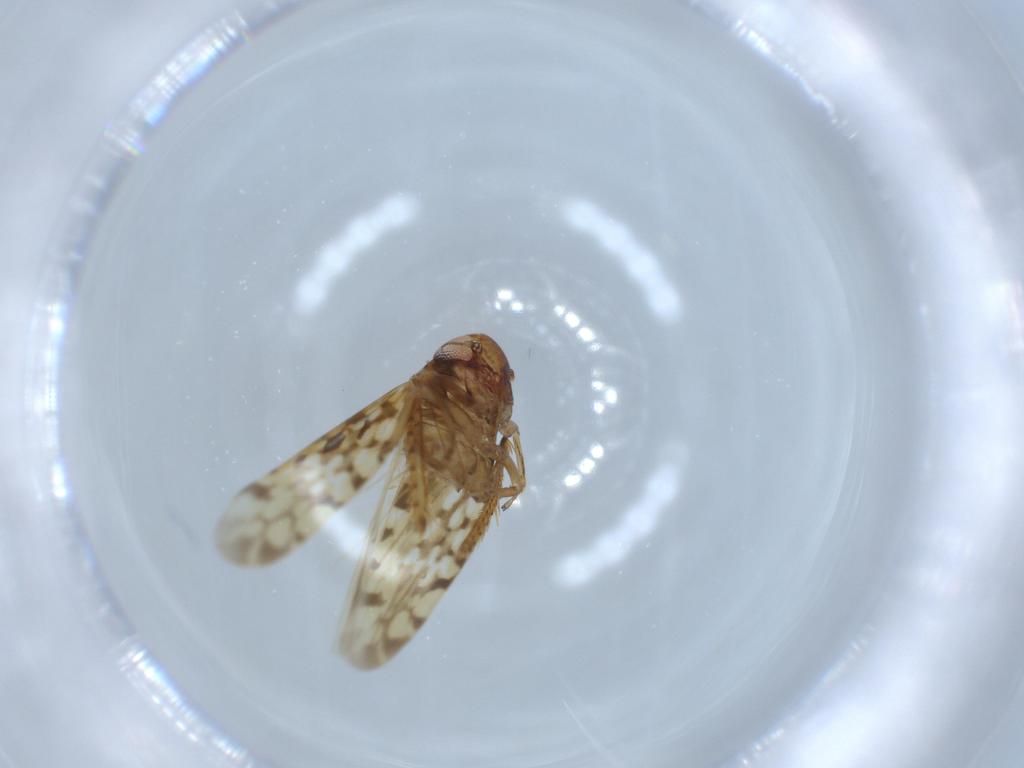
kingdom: Animalia
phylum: Arthropoda
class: Insecta
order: Hemiptera
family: Cicadellidae
